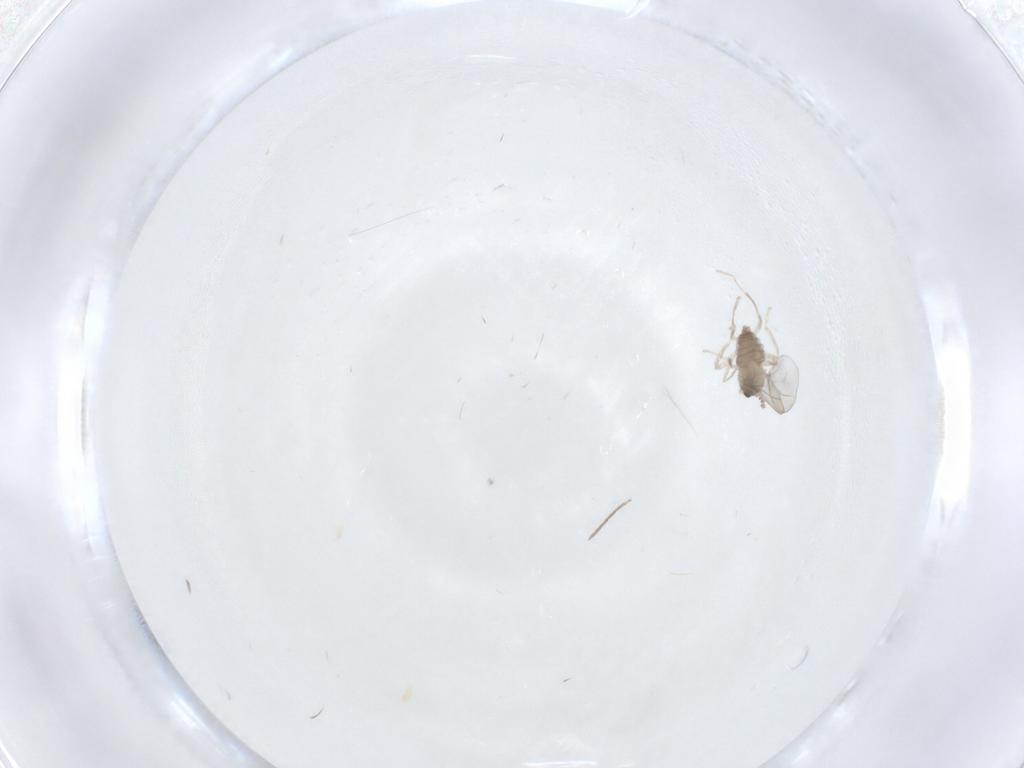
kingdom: Animalia
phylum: Arthropoda
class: Insecta
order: Diptera
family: Cecidomyiidae
